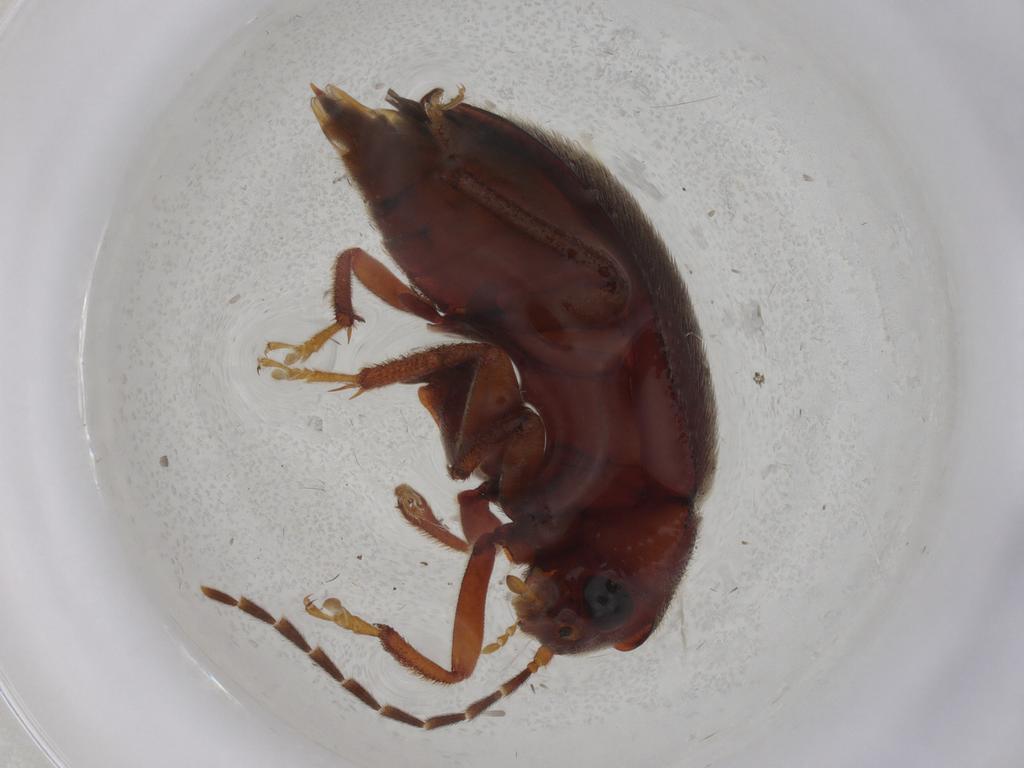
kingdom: Animalia
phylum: Arthropoda
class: Insecta
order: Coleoptera
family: Ptilodactylidae
